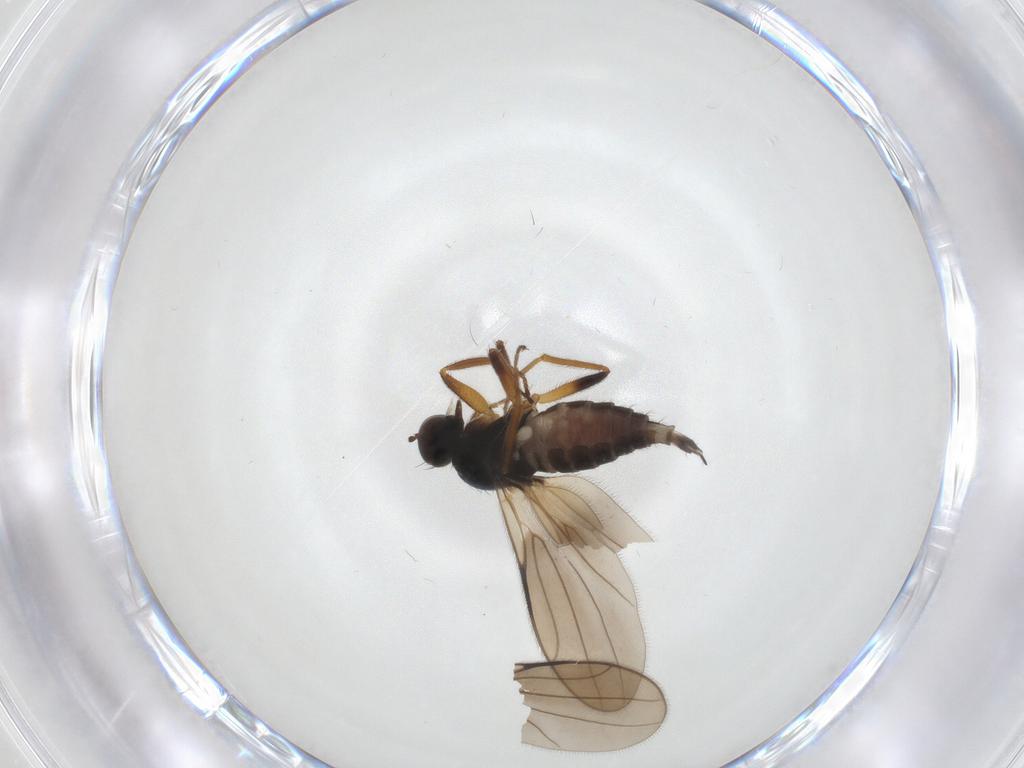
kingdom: Animalia
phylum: Arthropoda
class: Insecta
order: Diptera
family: Hybotidae
